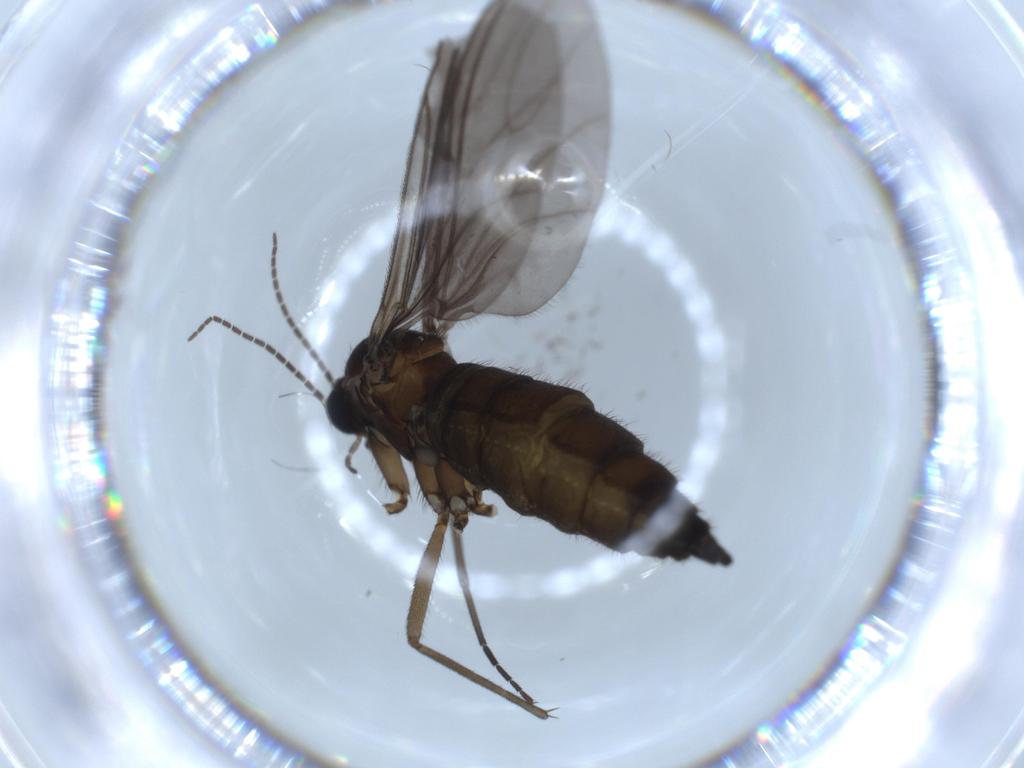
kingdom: Animalia
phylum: Arthropoda
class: Insecta
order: Diptera
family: Sciaridae
